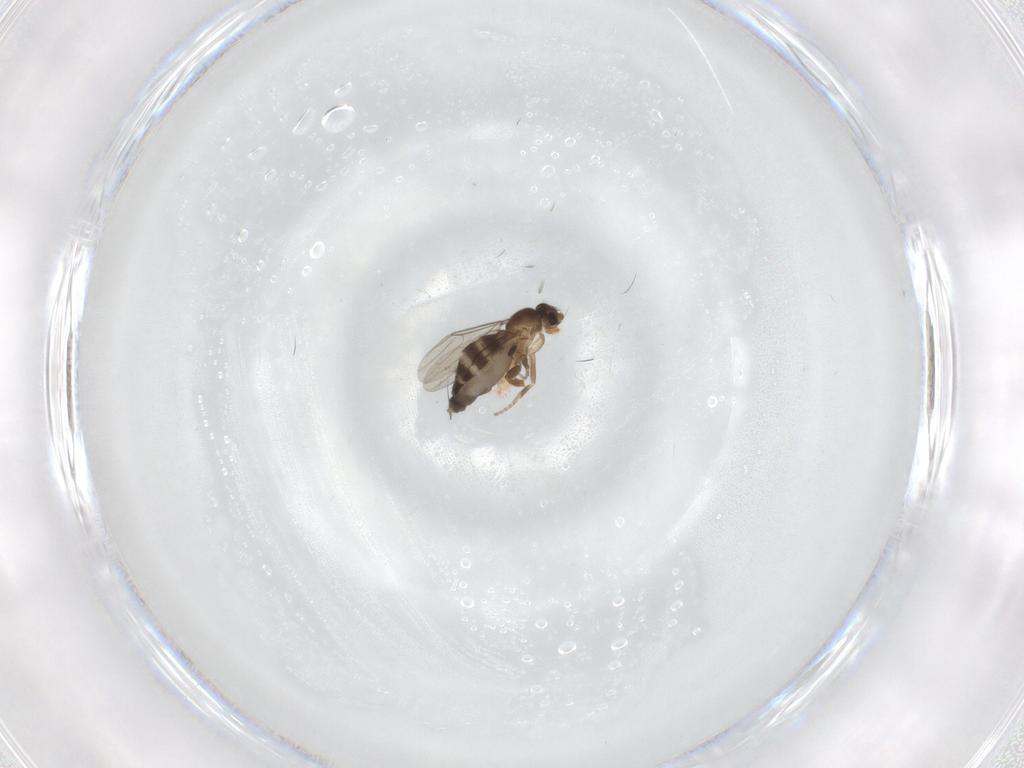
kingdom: Animalia
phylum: Arthropoda
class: Insecta
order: Diptera
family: Phoridae
